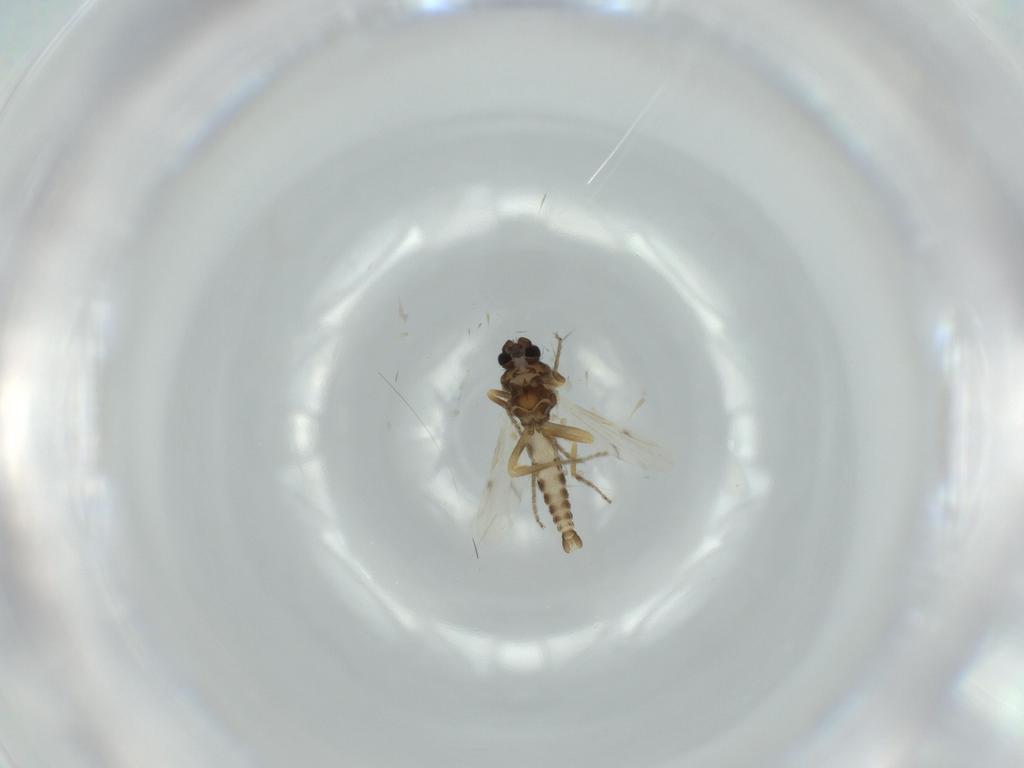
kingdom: Animalia
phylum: Arthropoda
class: Insecta
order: Diptera
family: Ceratopogonidae
